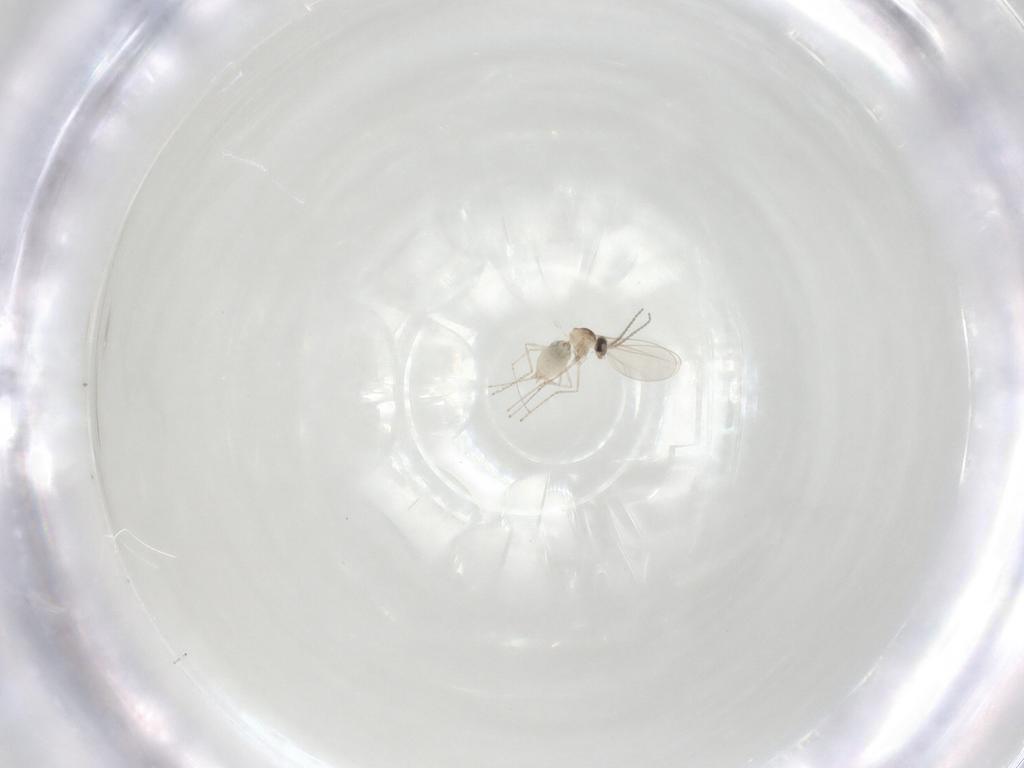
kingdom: Animalia
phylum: Arthropoda
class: Insecta
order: Diptera
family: Cecidomyiidae
